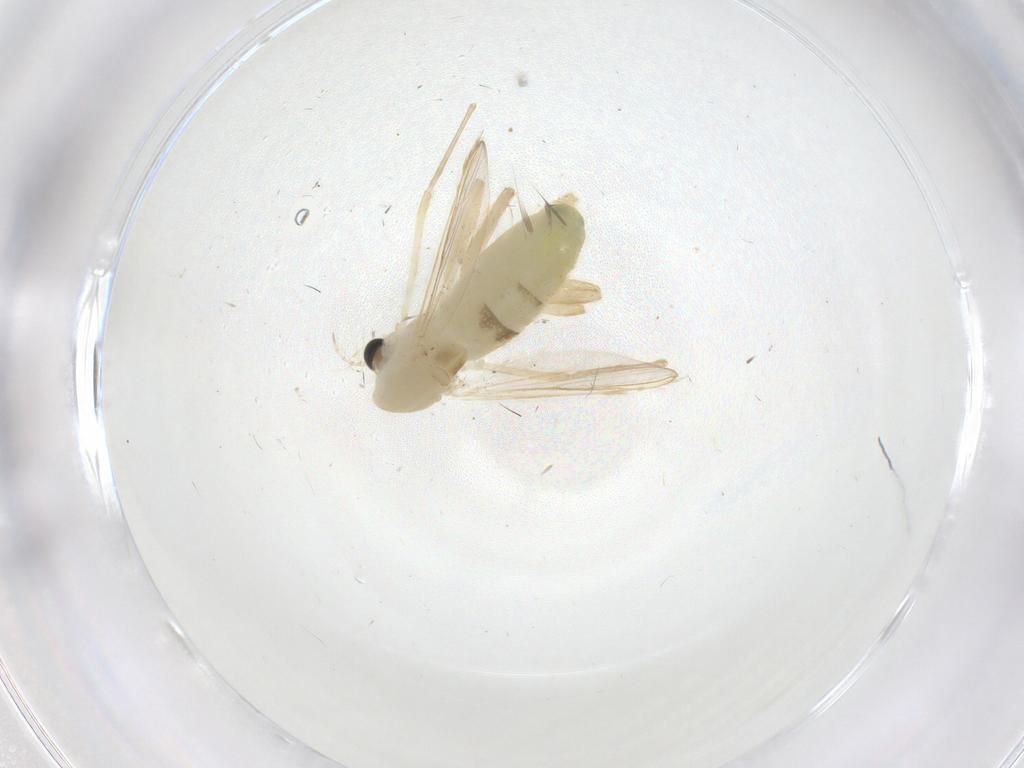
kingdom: Animalia
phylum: Arthropoda
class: Insecta
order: Diptera
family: Chironomidae
